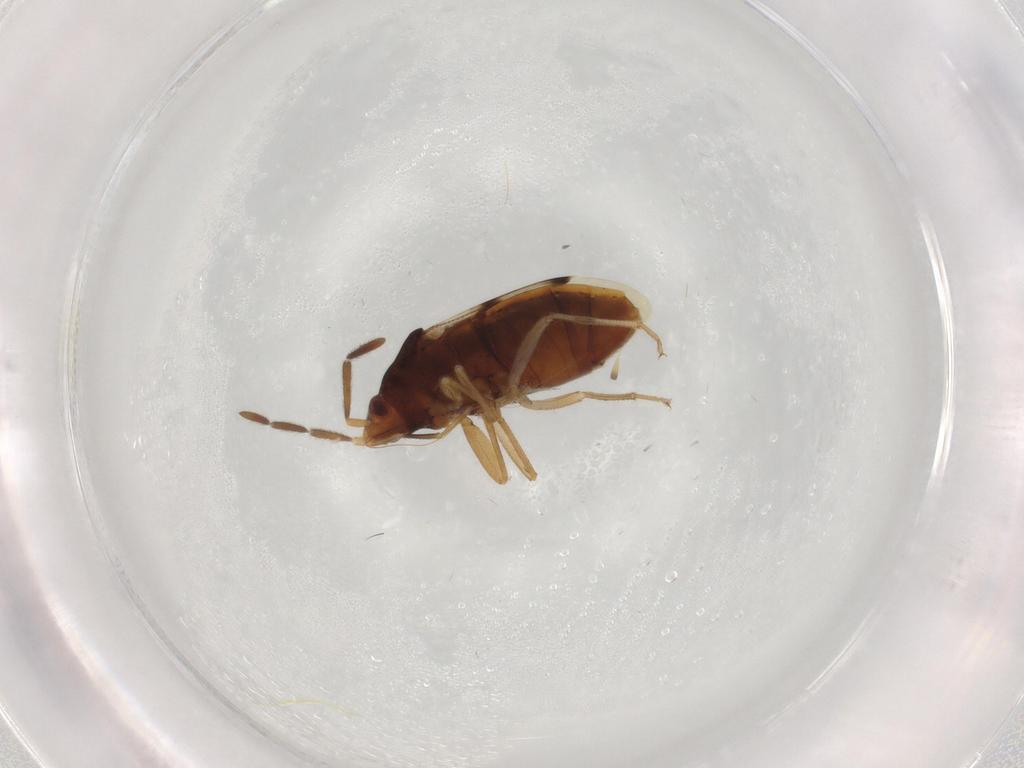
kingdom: Animalia
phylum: Arthropoda
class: Insecta
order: Hemiptera
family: Rhyparochromidae
